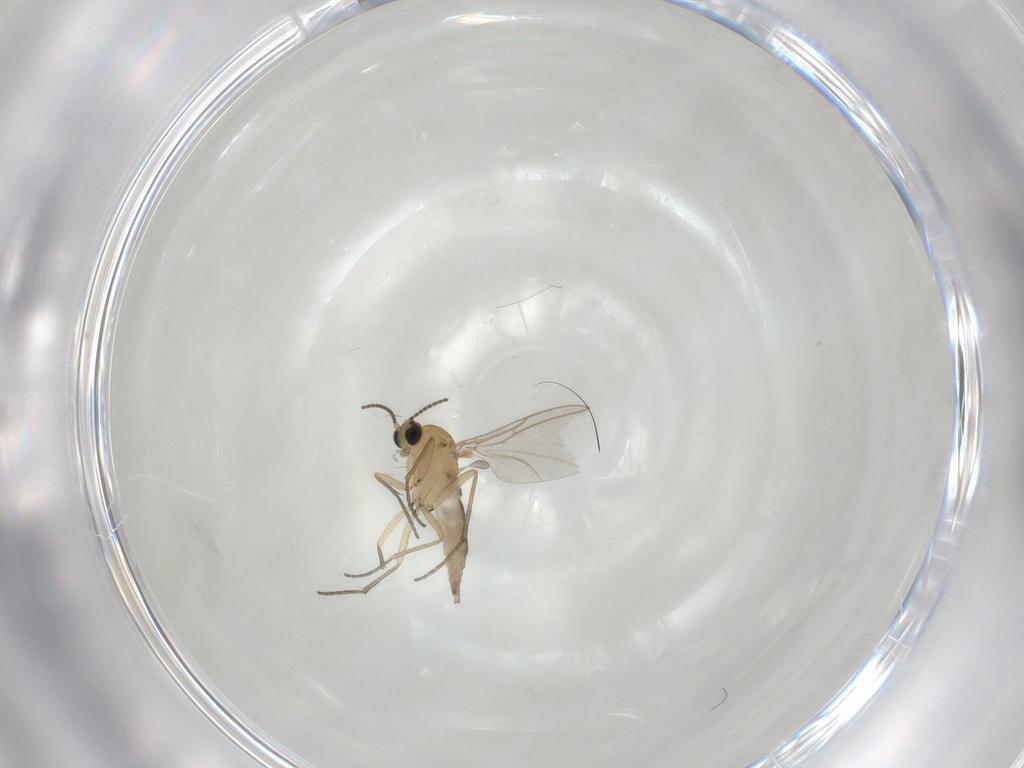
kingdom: Animalia
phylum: Arthropoda
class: Insecta
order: Diptera
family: Sciaridae
